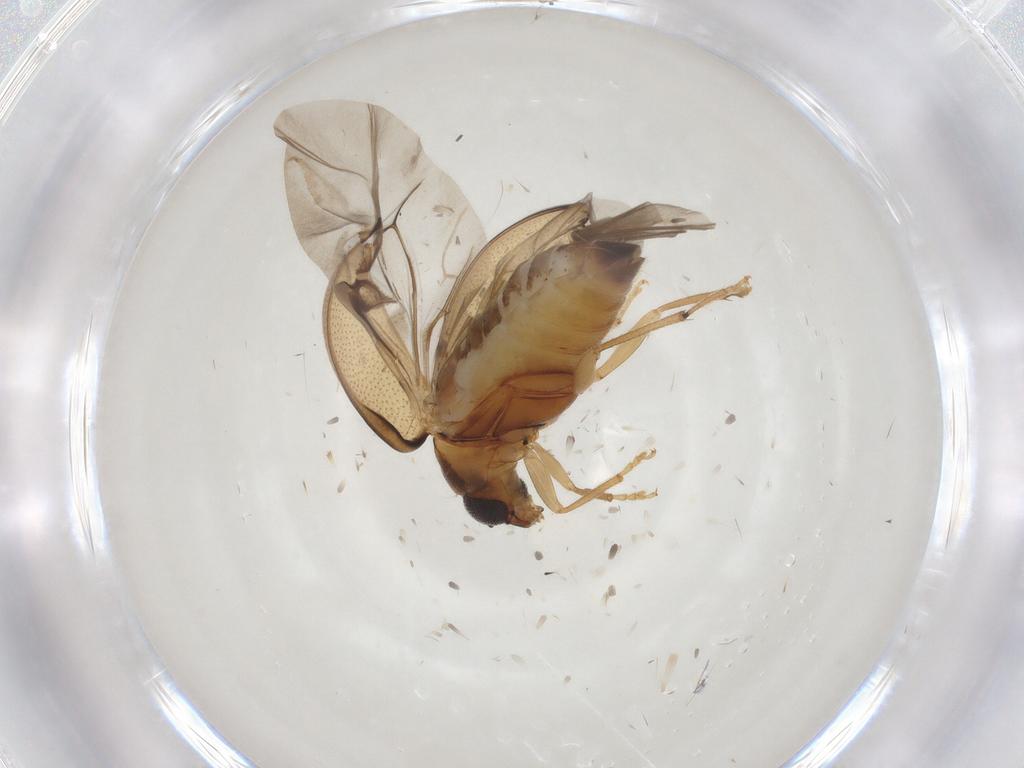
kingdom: Animalia
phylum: Arthropoda
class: Insecta
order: Coleoptera
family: Chrysomelidae
